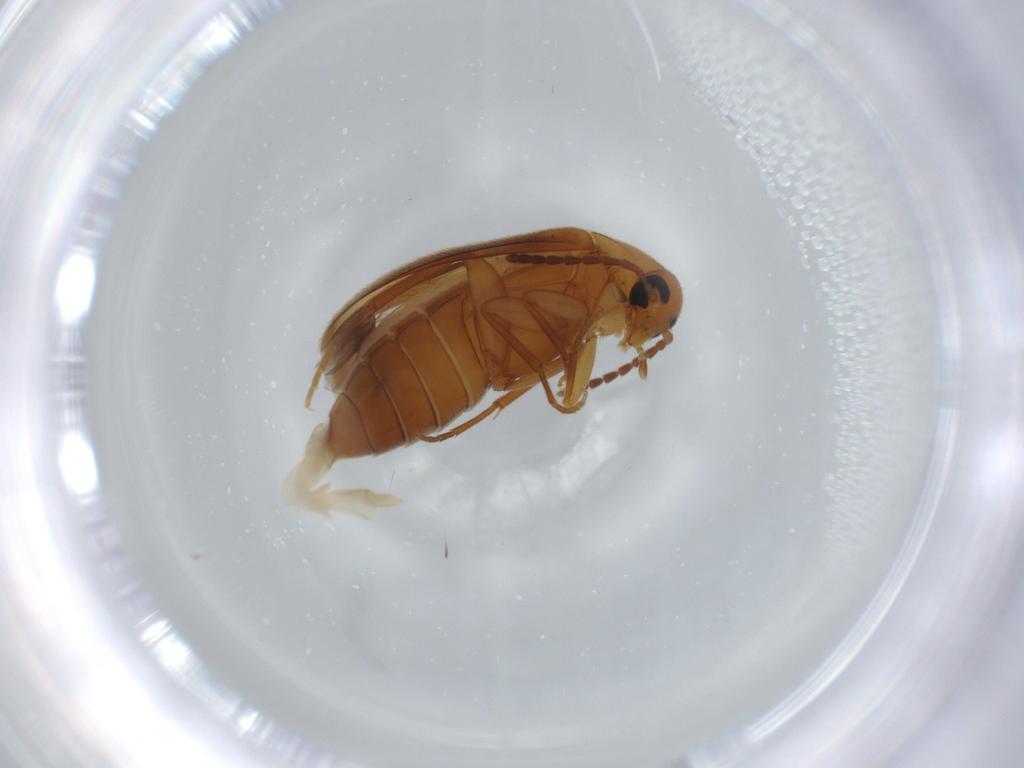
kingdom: Animalia
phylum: Arthropoda
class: Insecta
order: Coleoptera
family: Scraptiidae
